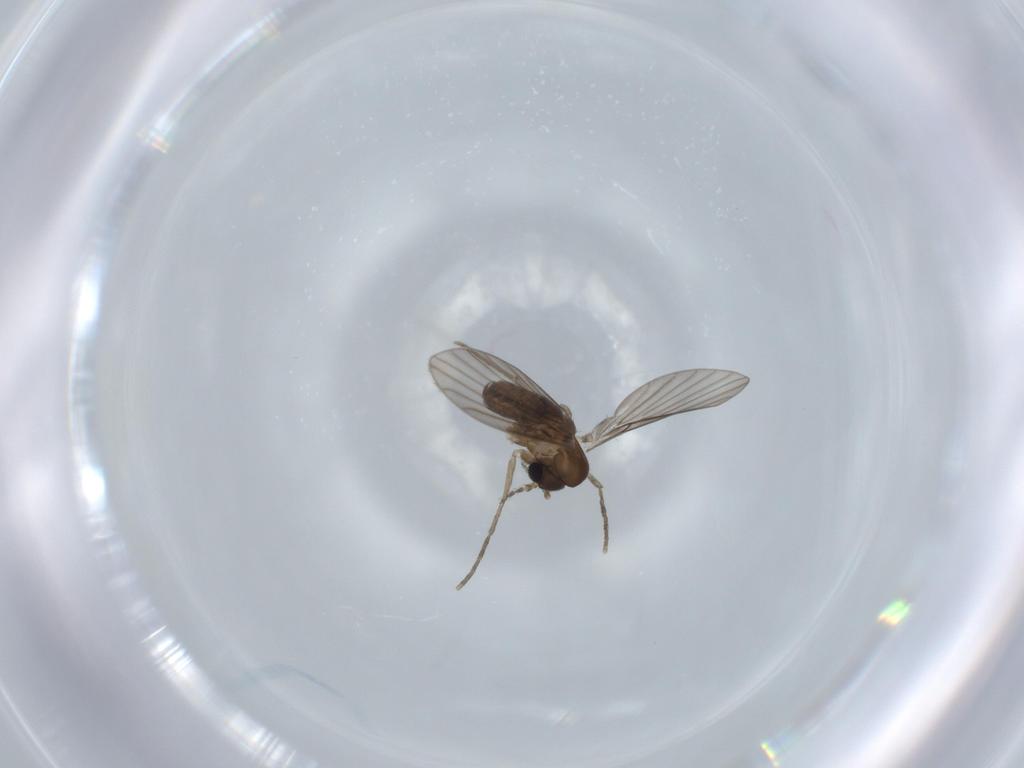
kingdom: Animalia
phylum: Arthropoda
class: Insecta
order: Diptera
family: Psychodidae
